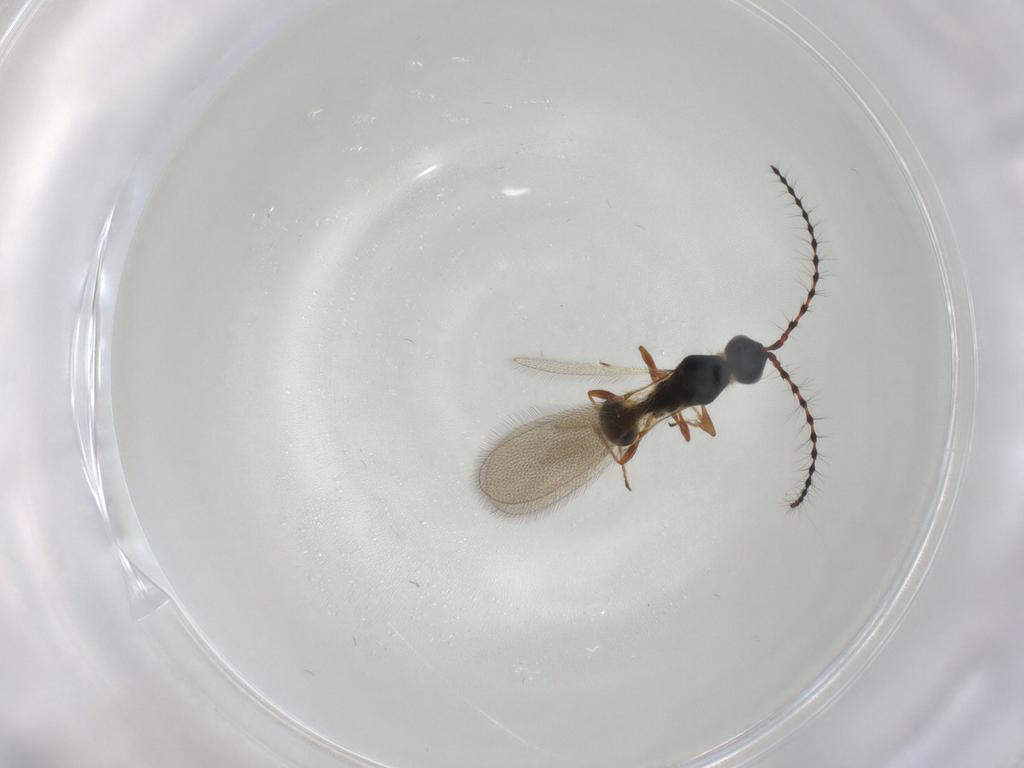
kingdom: Animalia
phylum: Arthropoda
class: Insecta
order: Hymenoptera
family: Diapriidae
